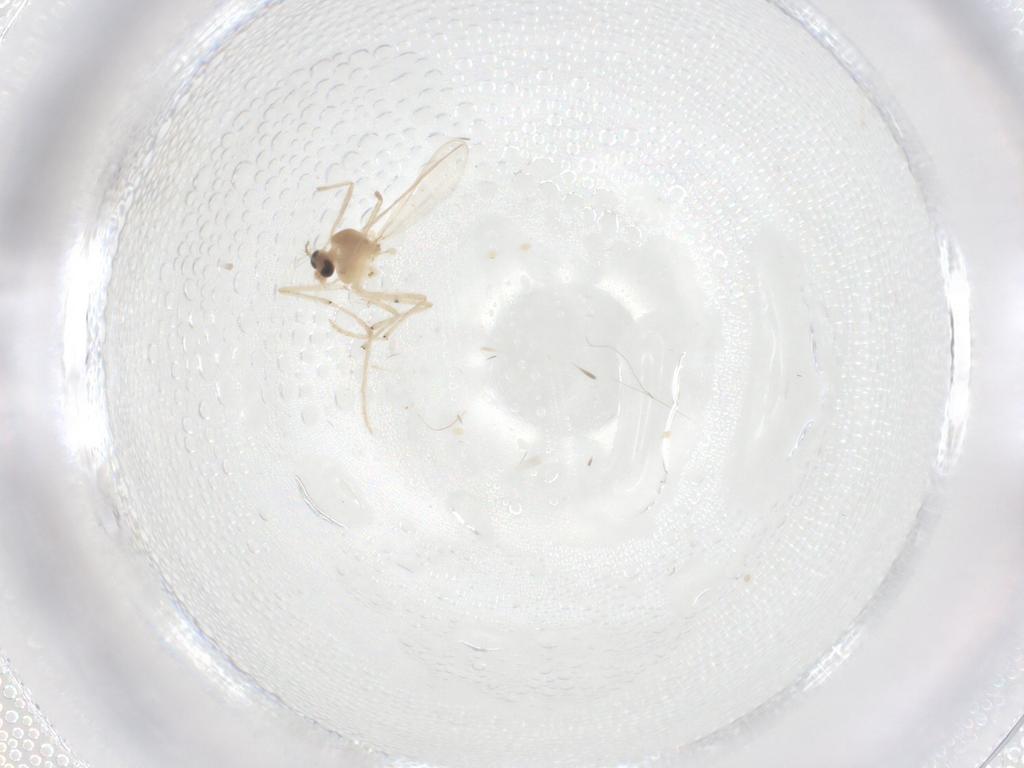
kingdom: Animalia
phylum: Arthropoda
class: Insecta
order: Diptera
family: Chironomidae
